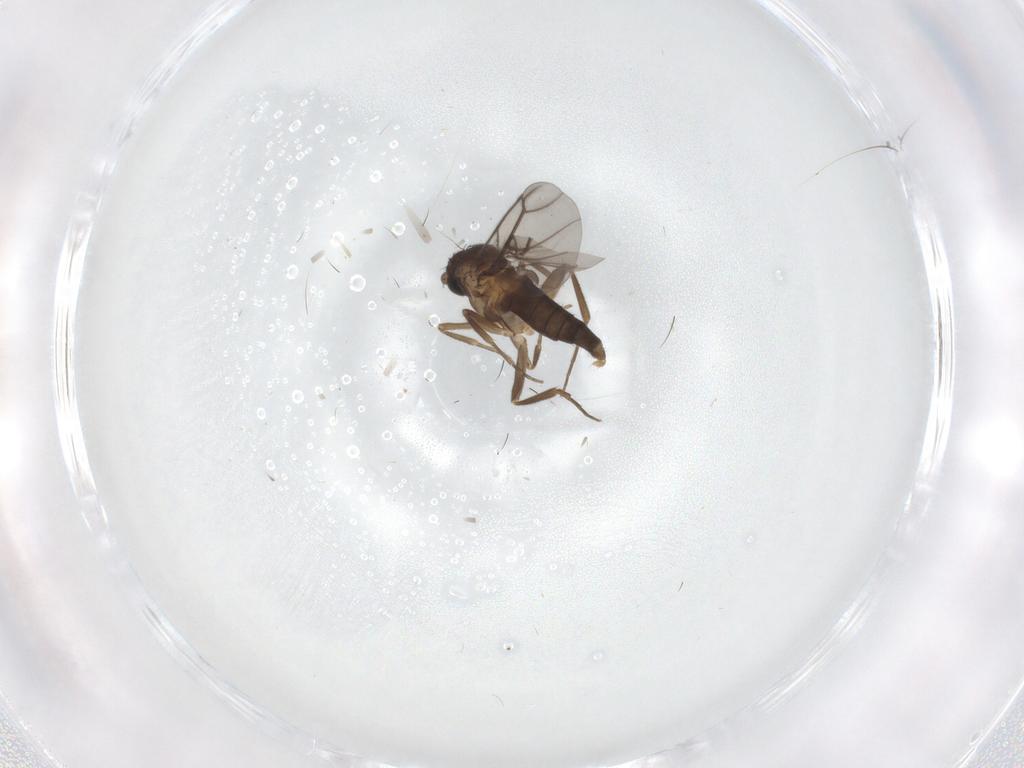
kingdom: Animalia
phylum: Arthropoda
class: Insecta
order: Diptera
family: Phoridae
